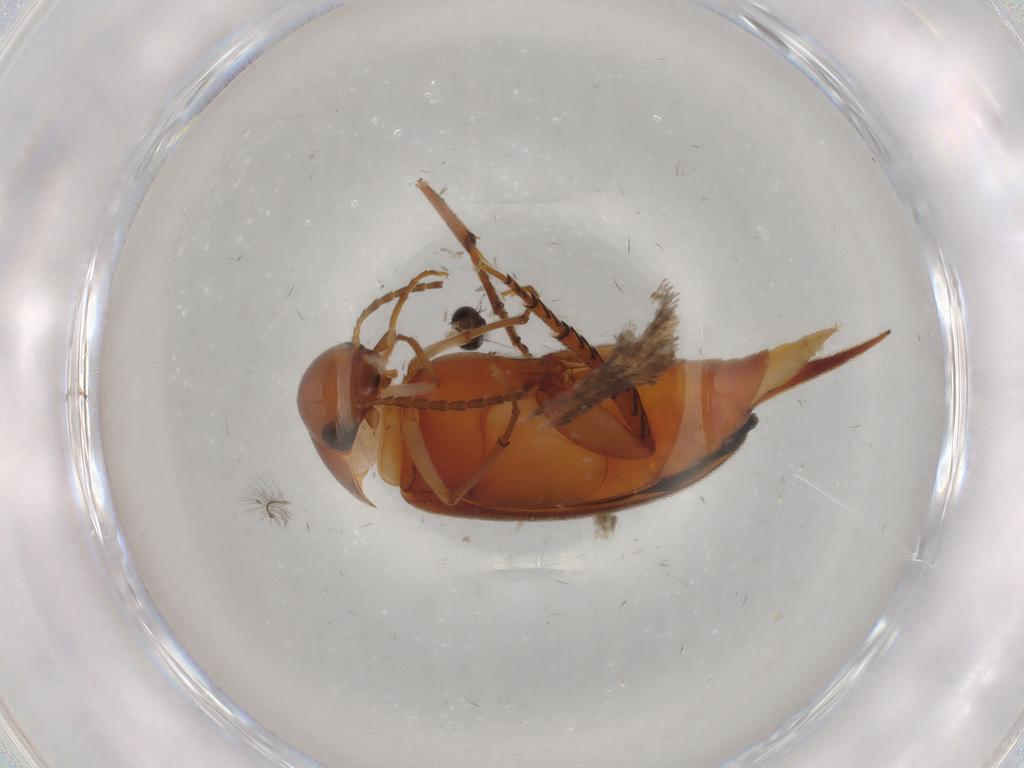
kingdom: Animalia
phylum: Arthropoda
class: Insecta
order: Coleoptera
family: Mordellidae
